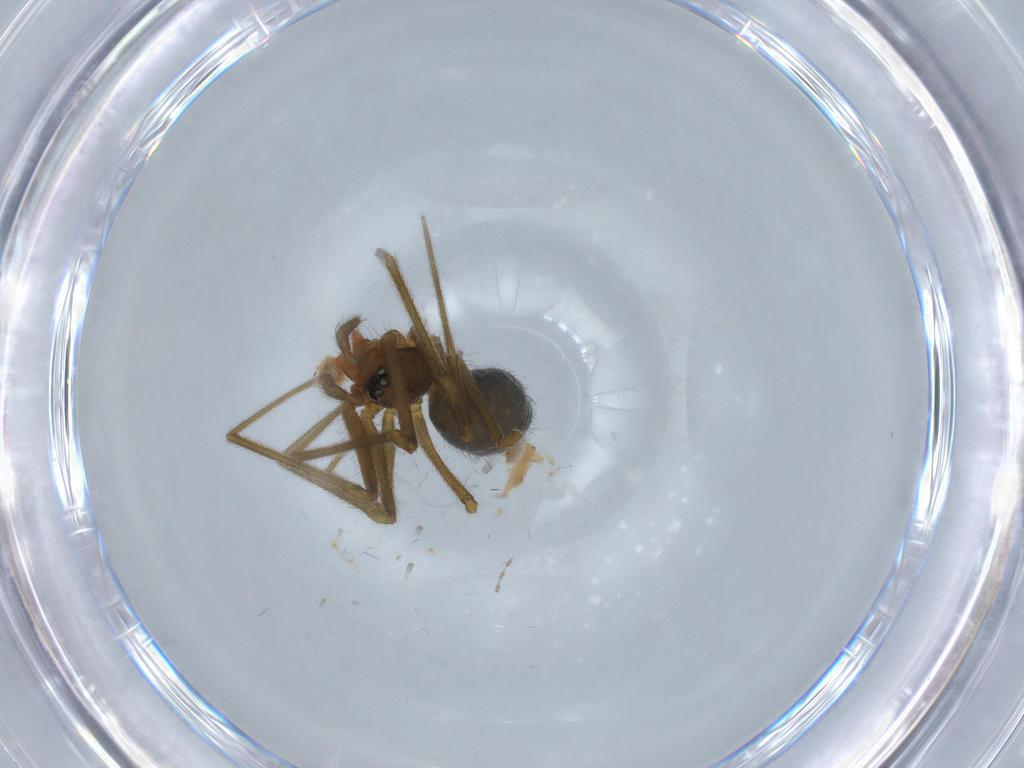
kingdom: Animalia
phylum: Arthropoda
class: Arachnida
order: Araneae
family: Linyphiidae
